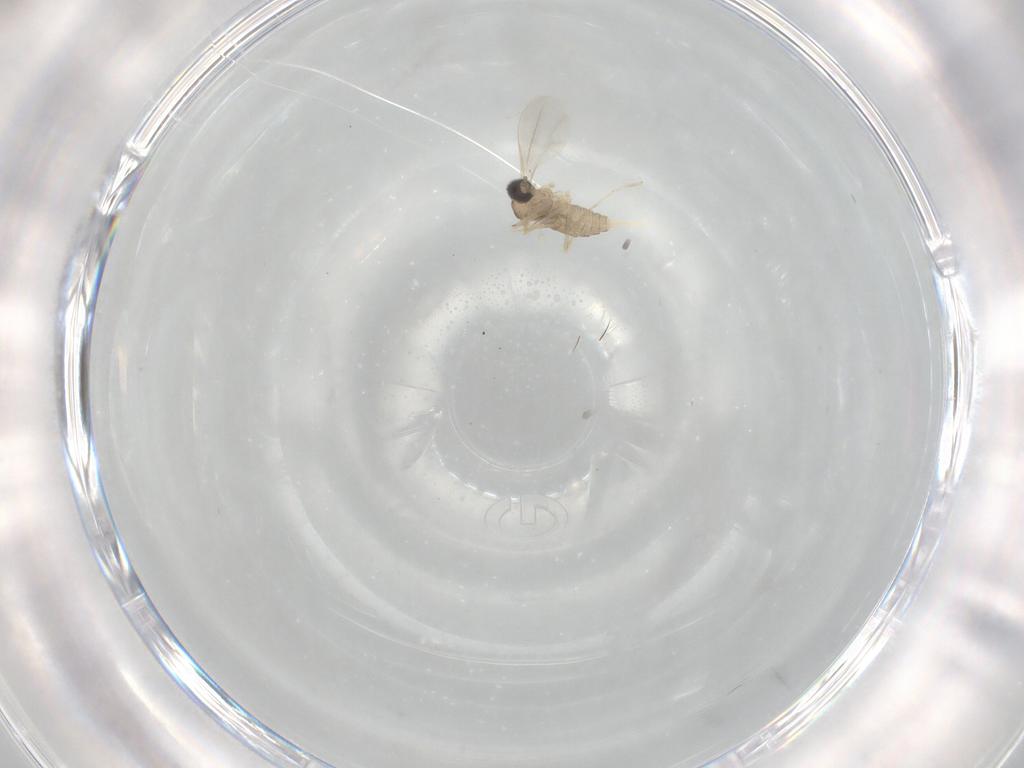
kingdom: Animalia
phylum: Arthropoda
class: Insecta
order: Diptera
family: Cecidomyiidae
